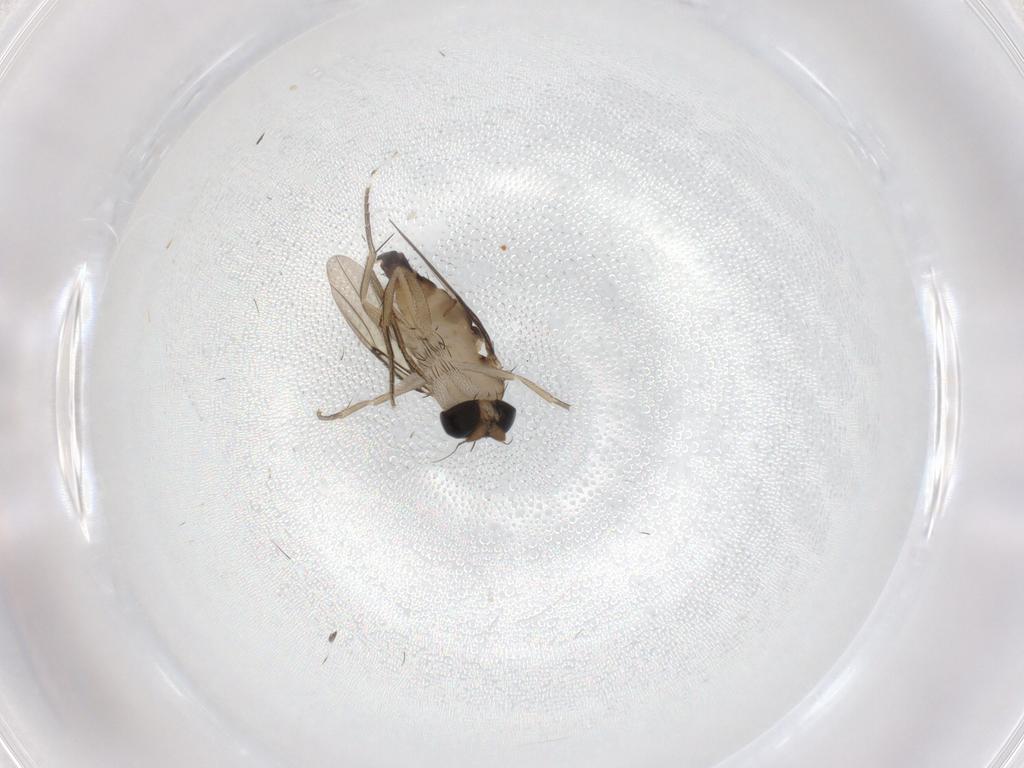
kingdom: Animalia
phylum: Arthropoda
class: Insecta
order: Diptera
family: Phoridae
